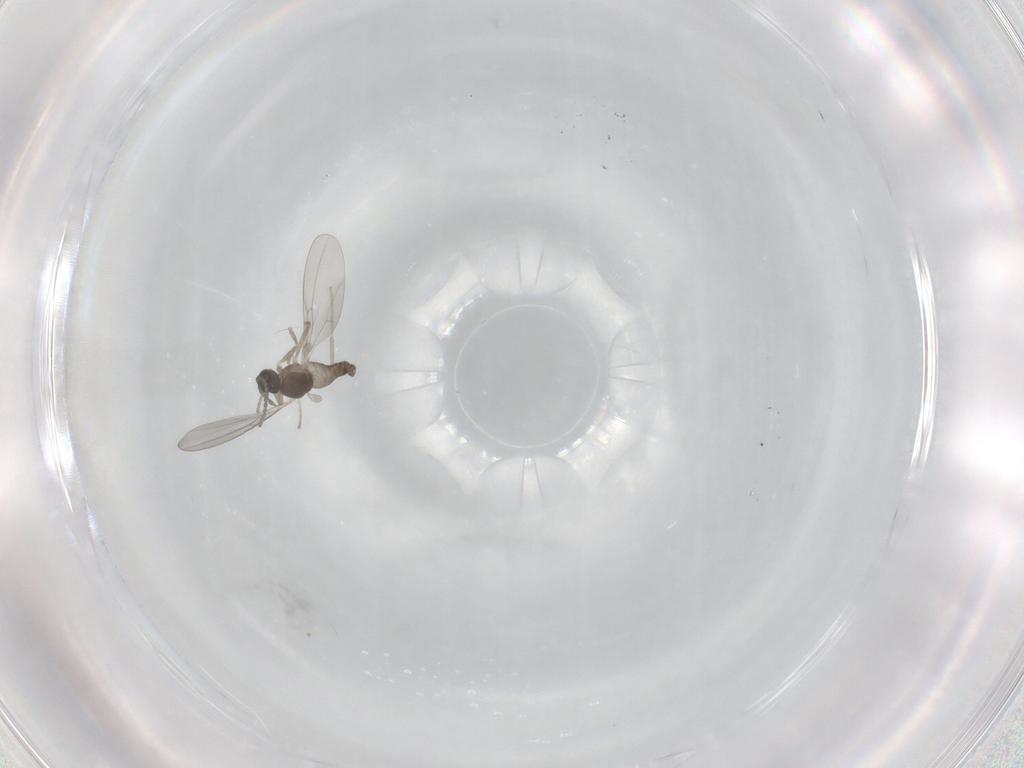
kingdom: Animalia
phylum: Arthropoda
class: Insecta
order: Diptera
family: Cecidomyiidae
